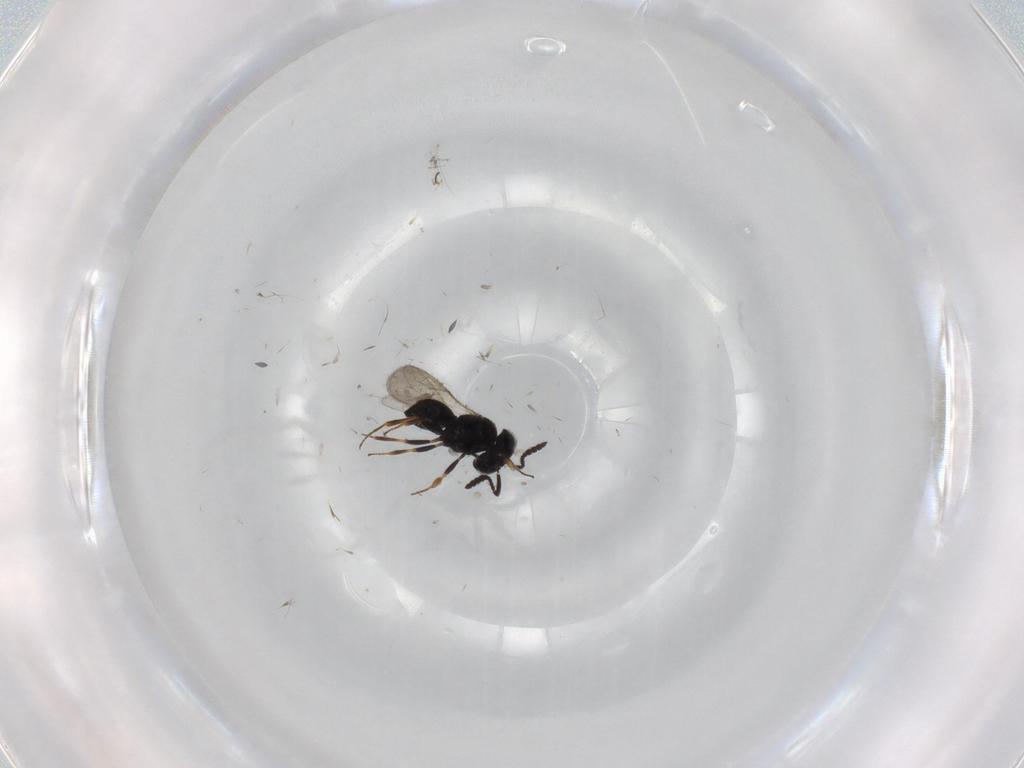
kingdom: Animalia
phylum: Arthropoda
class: Insecta
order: Hymenoptera
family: Scelionidae
